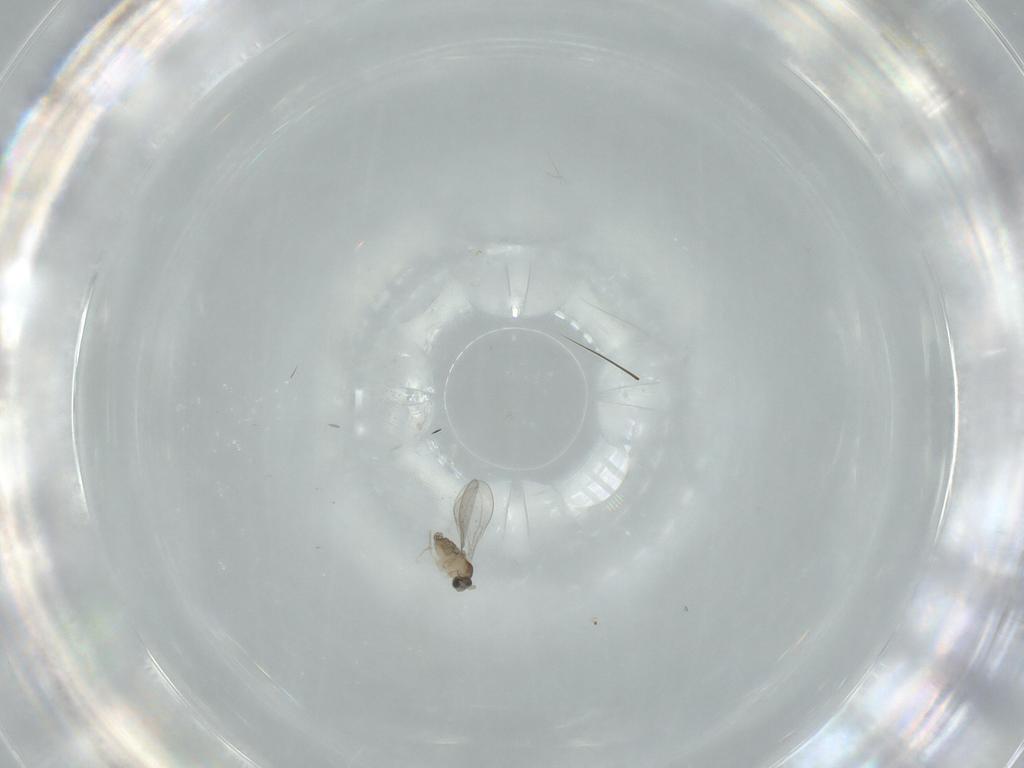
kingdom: Animalia
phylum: Arthropoda
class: Insecta
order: Diptera
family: Cecidomyiidae
